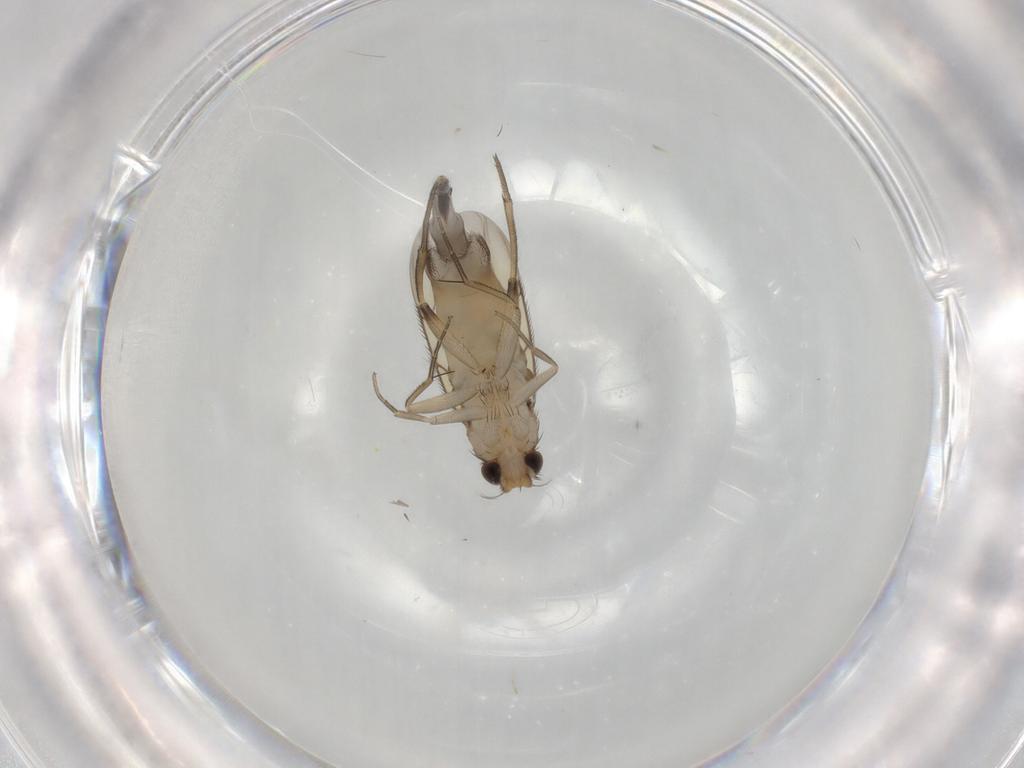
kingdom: Animalia
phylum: Arthropoda
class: Insecta
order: Diptera
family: Phoridae
